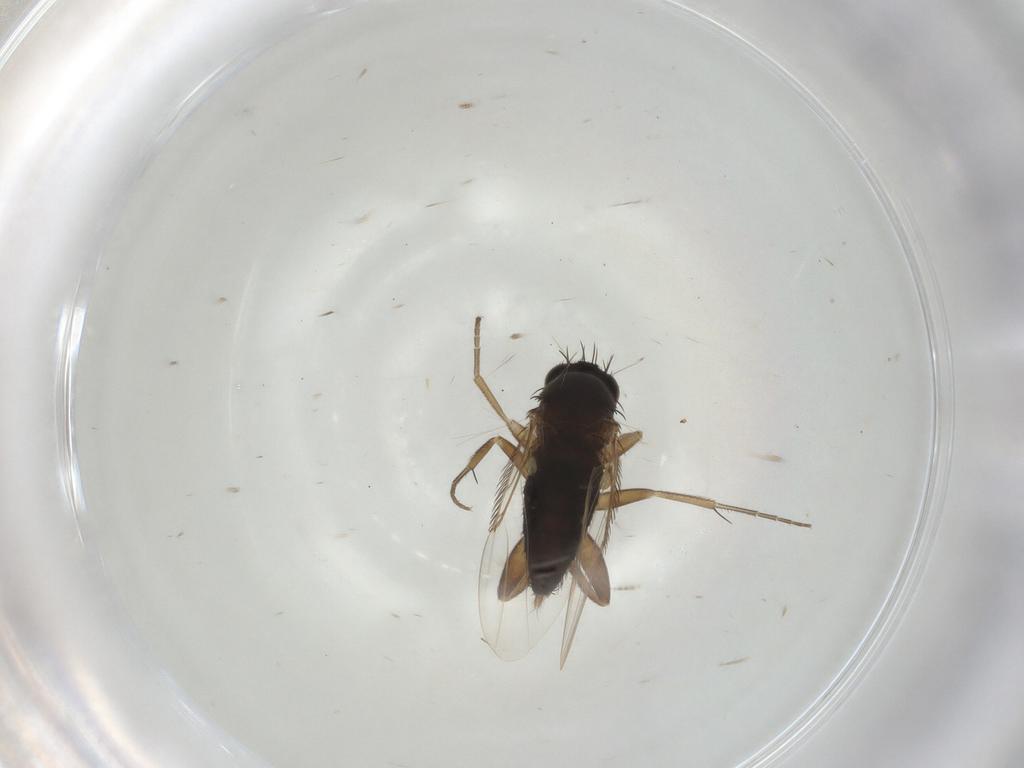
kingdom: Animalia
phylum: Arthropoda
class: Insecta
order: Diptera
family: Phoridae
